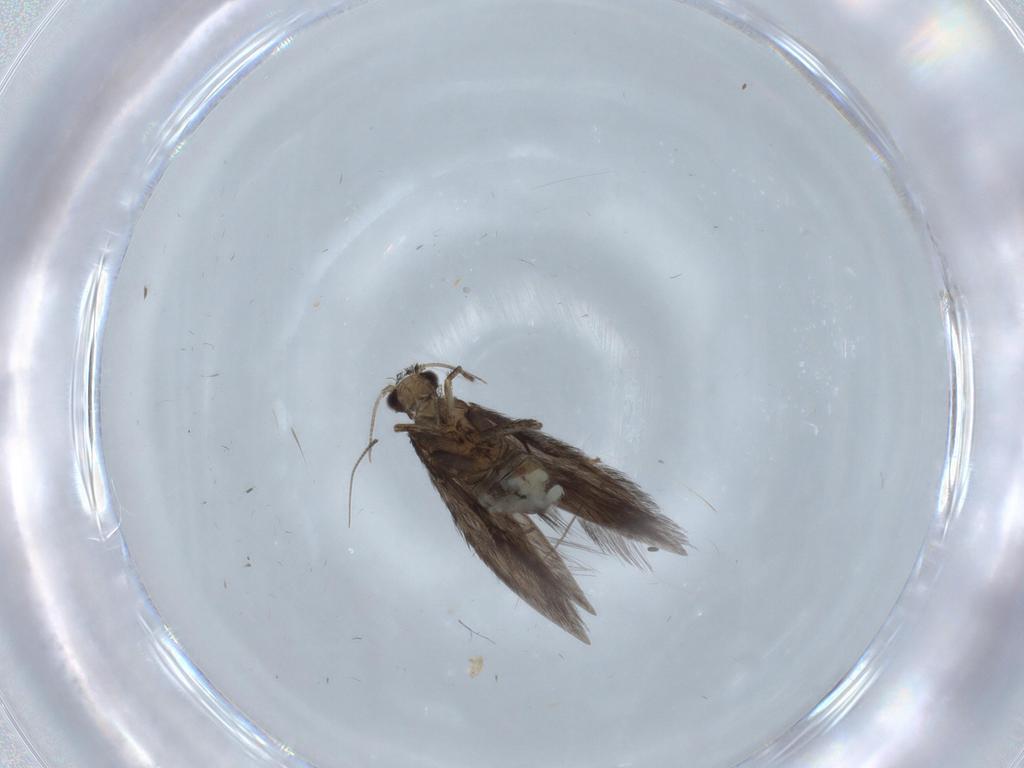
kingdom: Animalia
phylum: Arthropoda
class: Insecta
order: Trichoptera
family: Hydroptilidae
